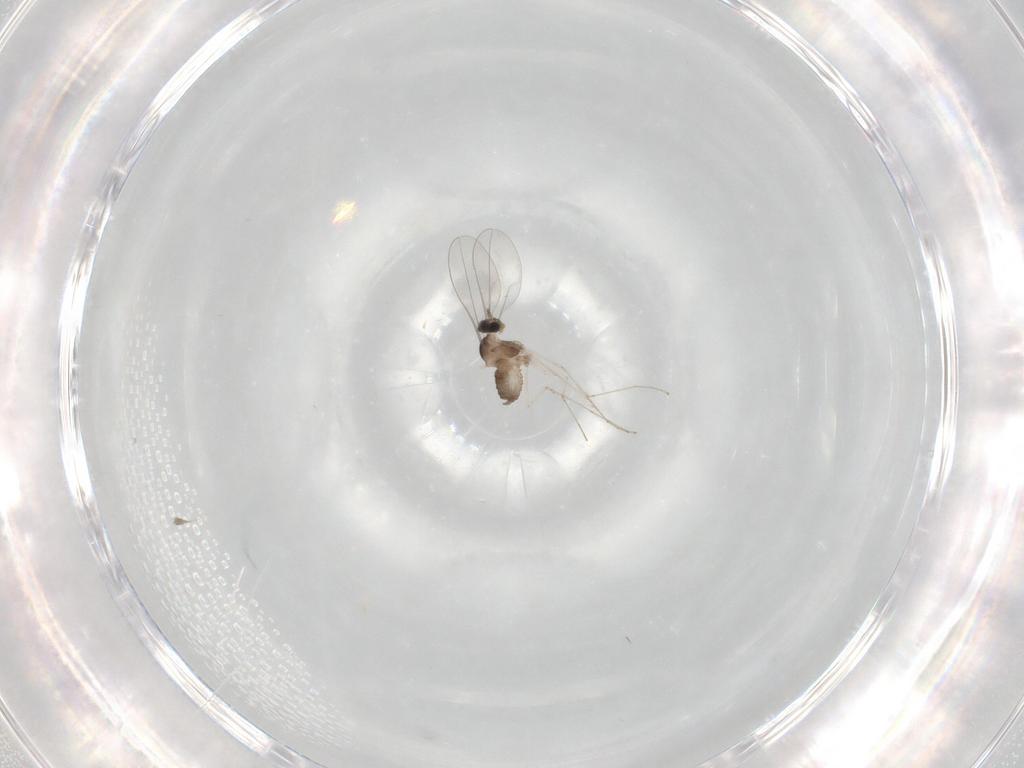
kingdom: Animalia
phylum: Arthropoda
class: Insecta
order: Diptera
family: Cecidomyiidae
